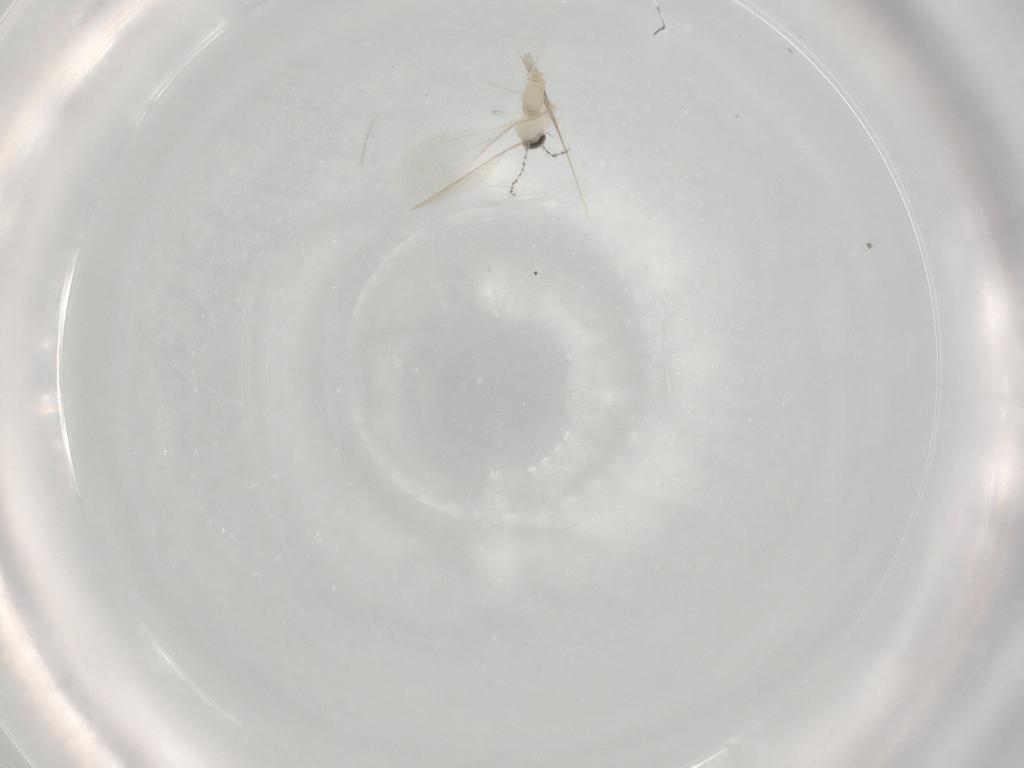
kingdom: Animalia
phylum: Arthropoda
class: Insecta
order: Diptera
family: Cecidomyiidae
